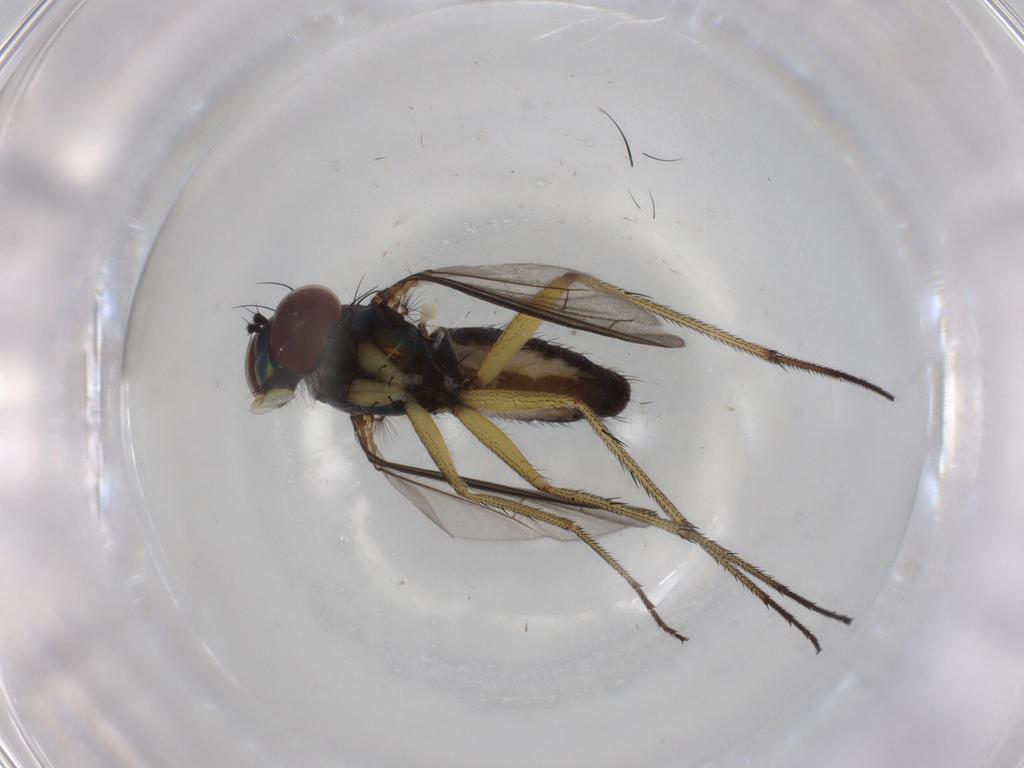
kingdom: Animalia
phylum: Arthropoda
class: Insecta
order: Diptera
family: Dolichopodidae
